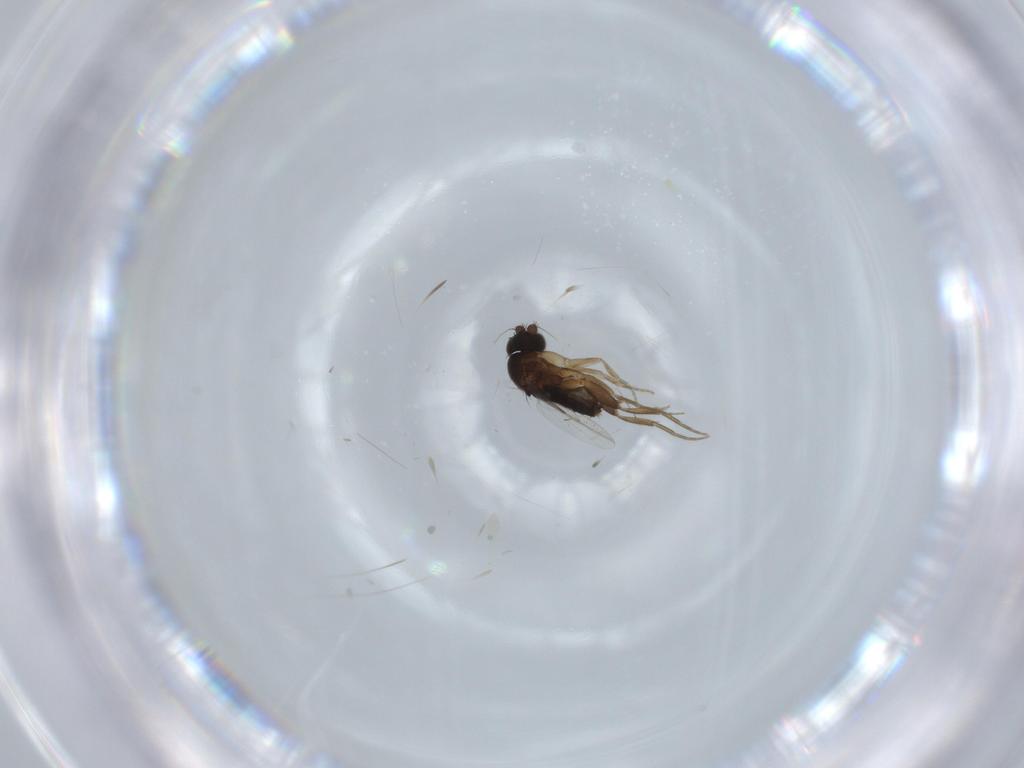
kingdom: Animalia
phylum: Arthropoda
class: Insecta
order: Diptera
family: Phoridae
